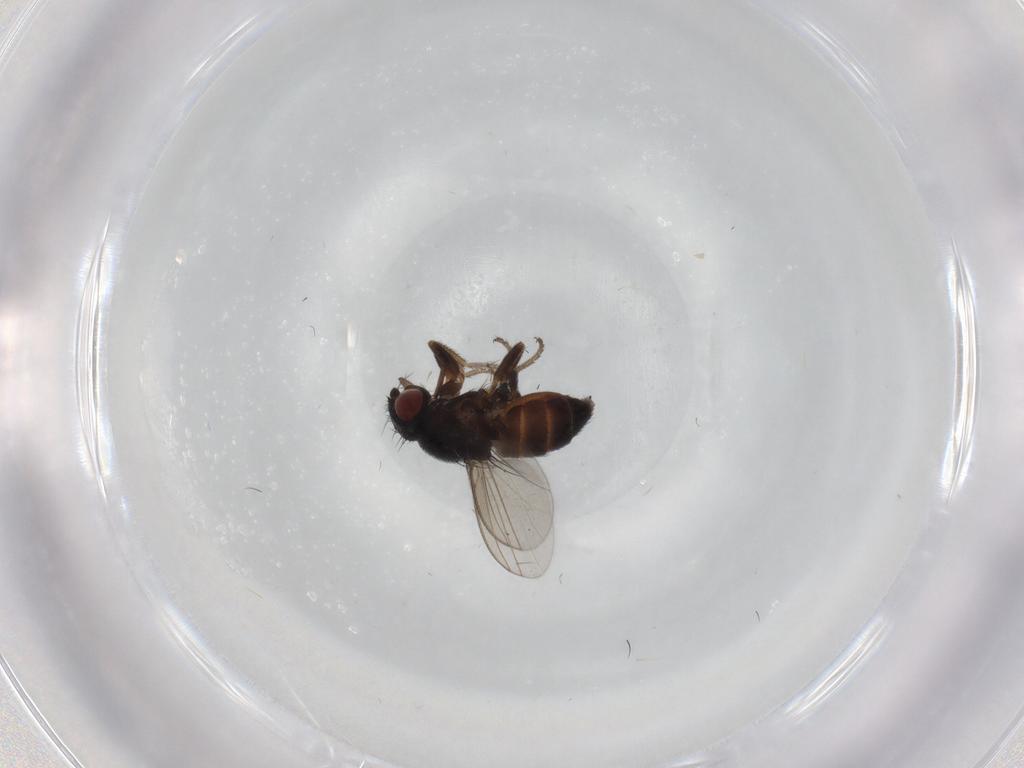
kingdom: Animalia
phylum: Arthropoda
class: Insecta
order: Diptera
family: Milichiidae
